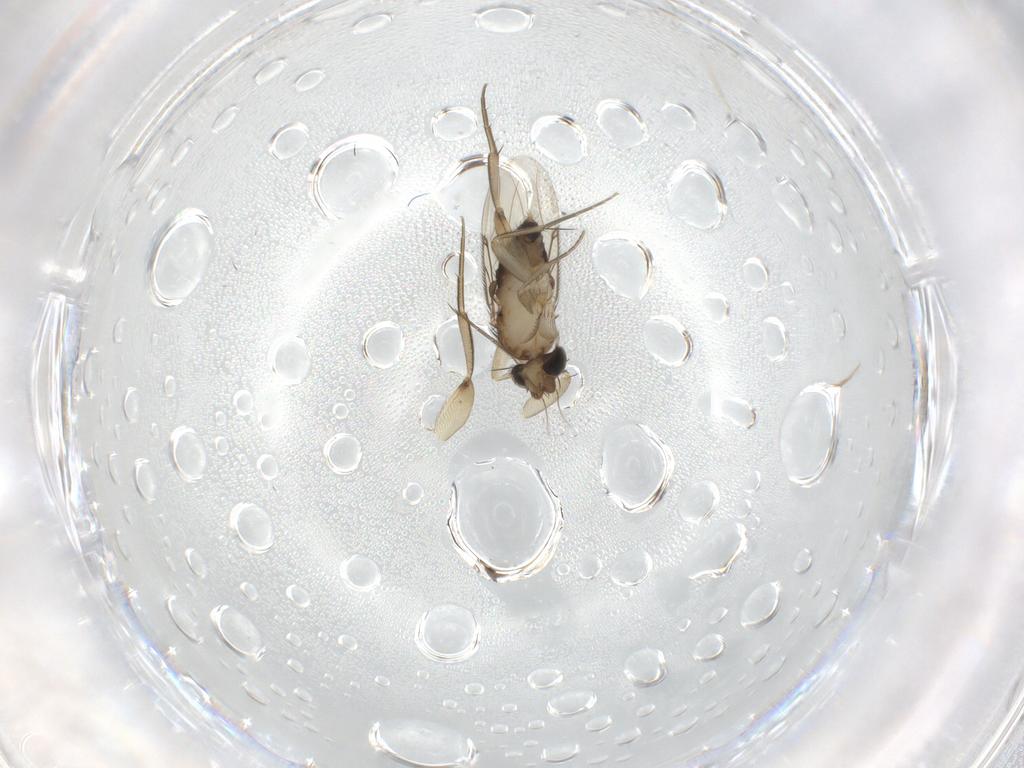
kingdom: Animalia
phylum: Arthropoda
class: Insecta
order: Diptera
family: Phoridae
